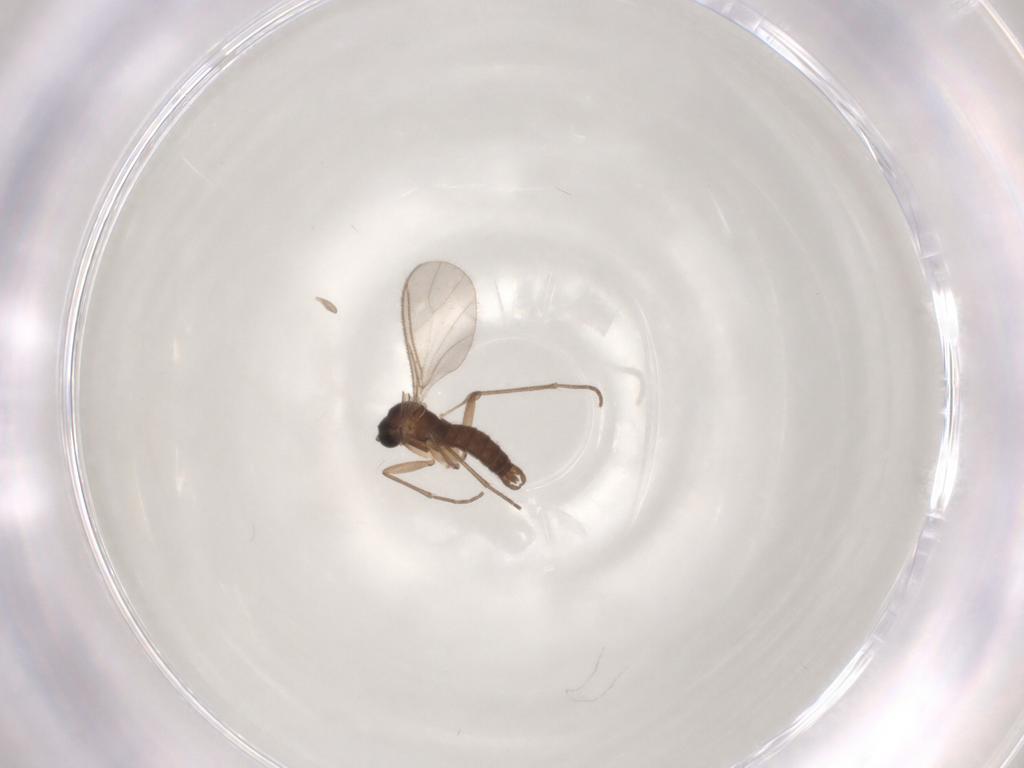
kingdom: Animalia
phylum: Arthropoda
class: Insecta
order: Diptera
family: Sciaridae
